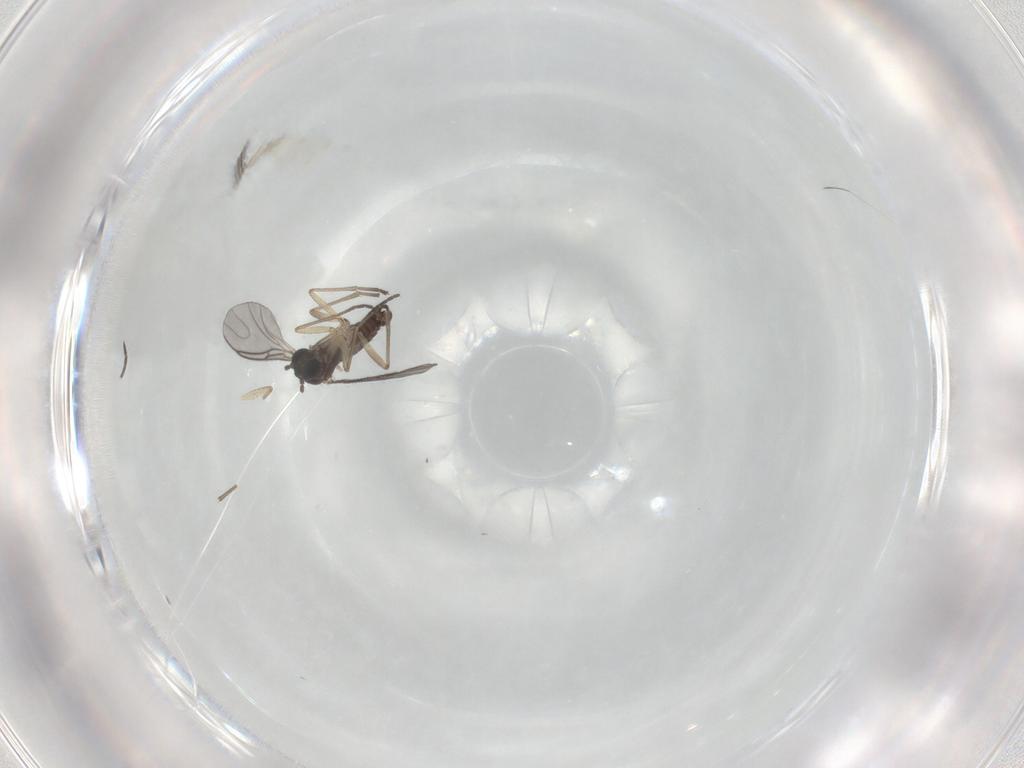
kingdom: Animalia
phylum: Arthropoda
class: Insecta
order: Diptera
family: Sciaridae
